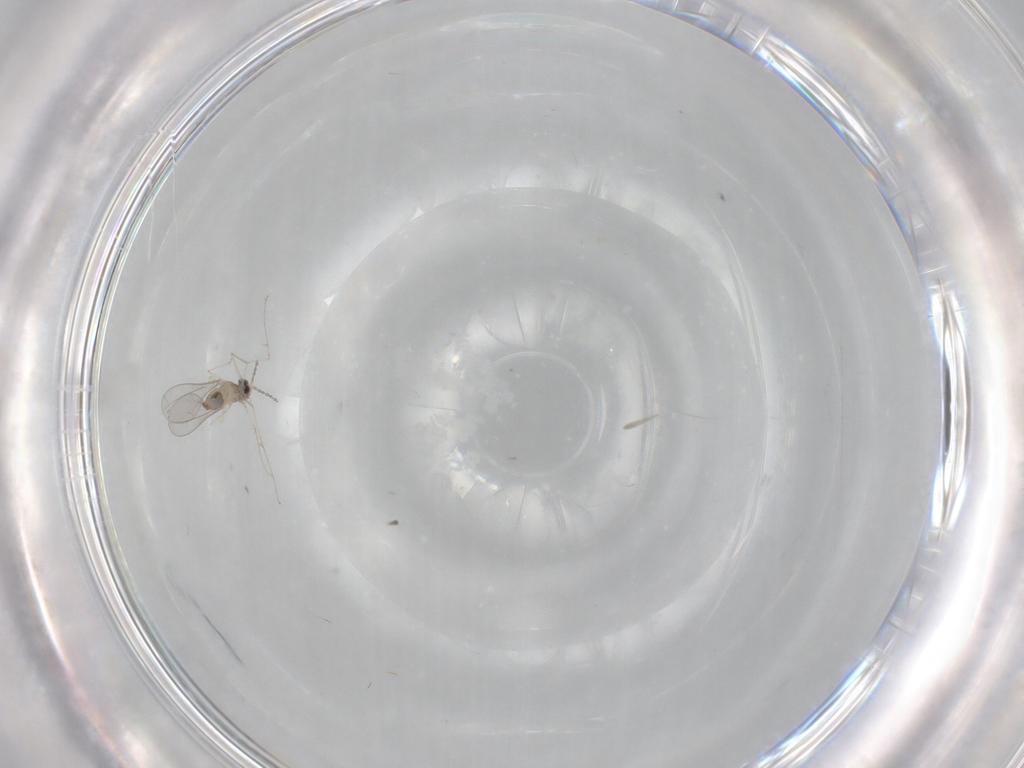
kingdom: Animalia
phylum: Arthropoda
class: Insecta
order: Diptera
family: Cecidomyiidae
